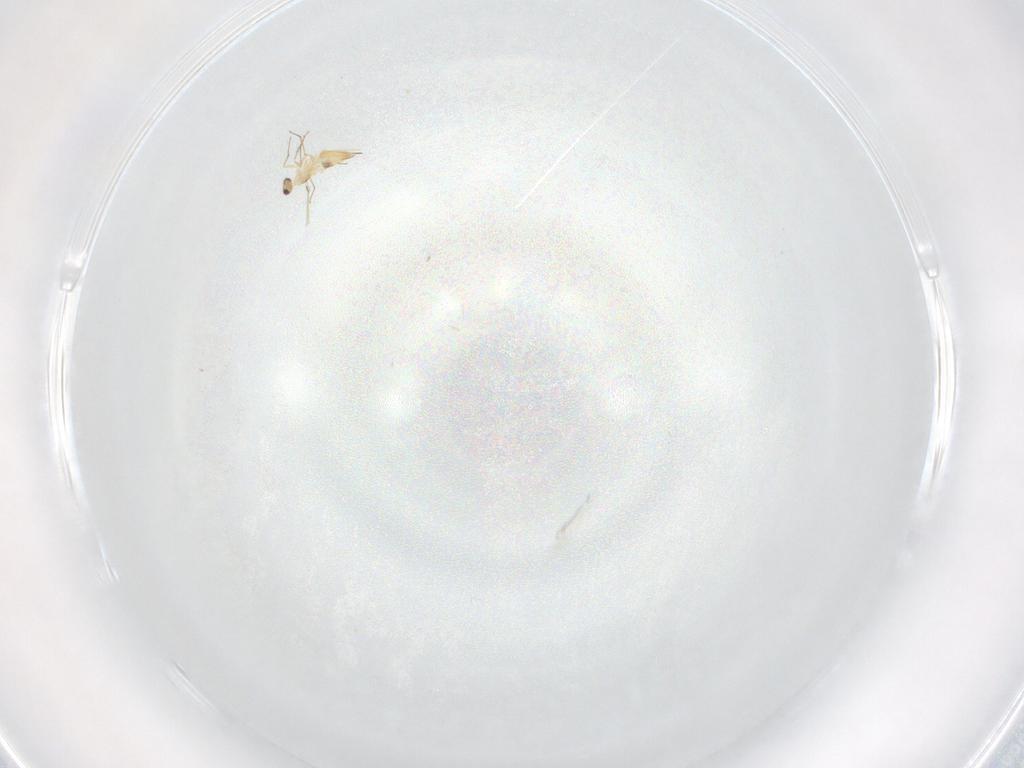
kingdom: Animalia
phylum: Arthropoda
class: Insecta
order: Hymenoptera
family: Mymaridae
